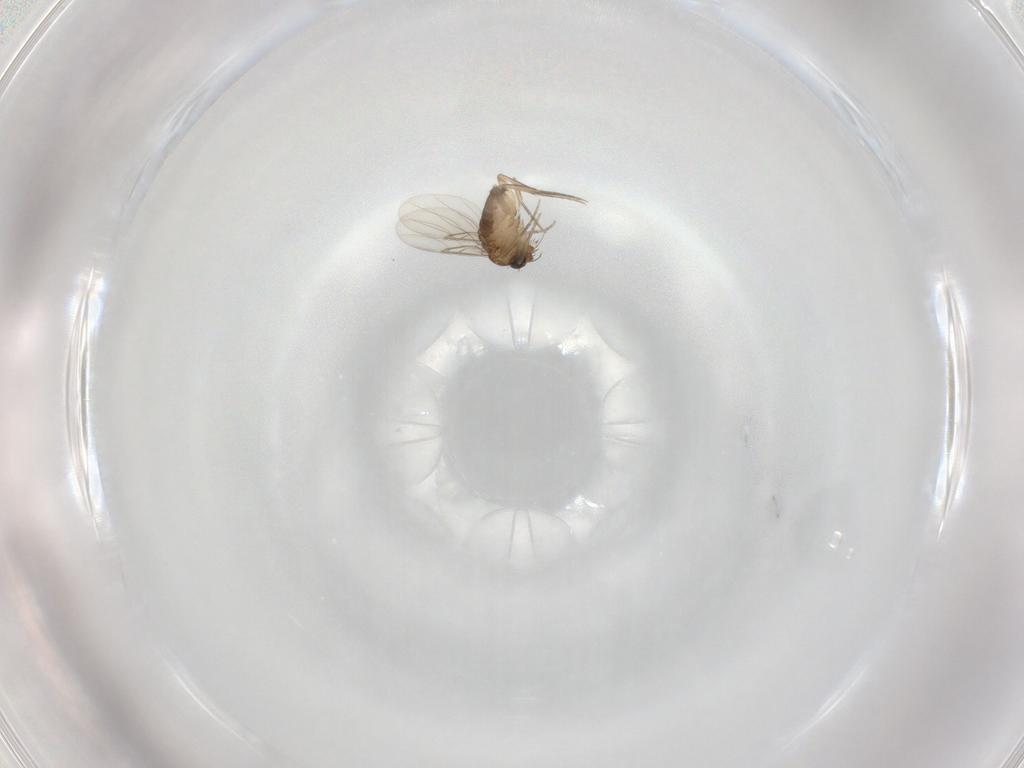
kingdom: Animalia
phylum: Arthropoda
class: Insecta
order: Diptera
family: Phoridae
